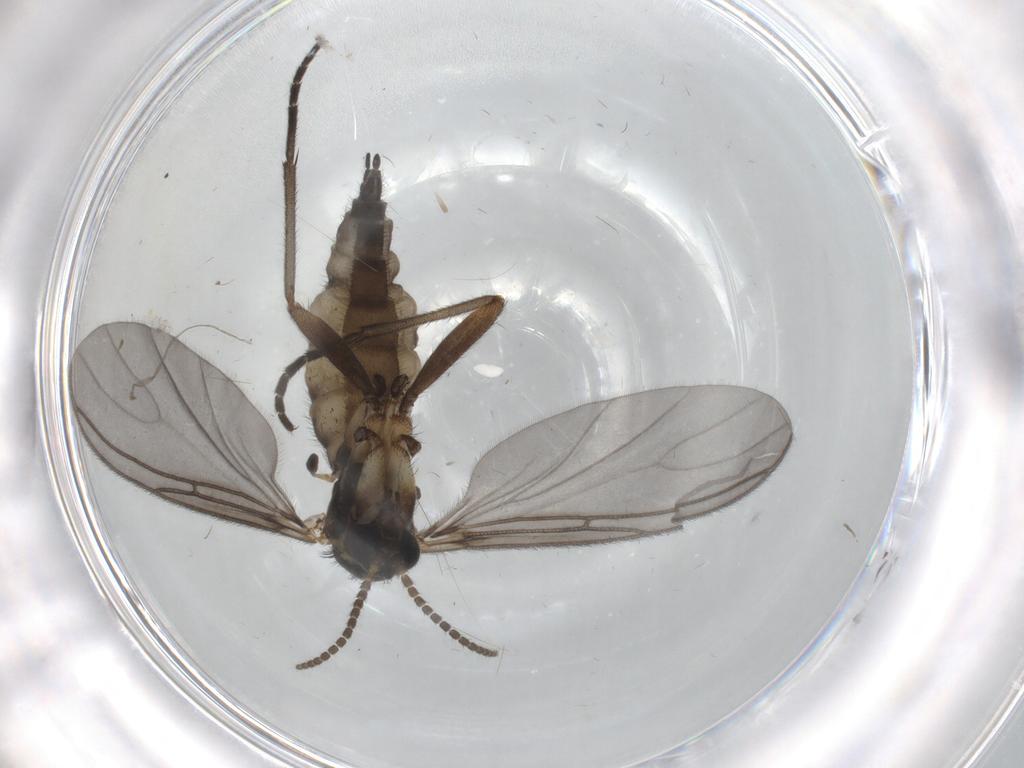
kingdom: Animalia
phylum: Arthropoda
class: Insecta
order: Diptera
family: Sciaridae
